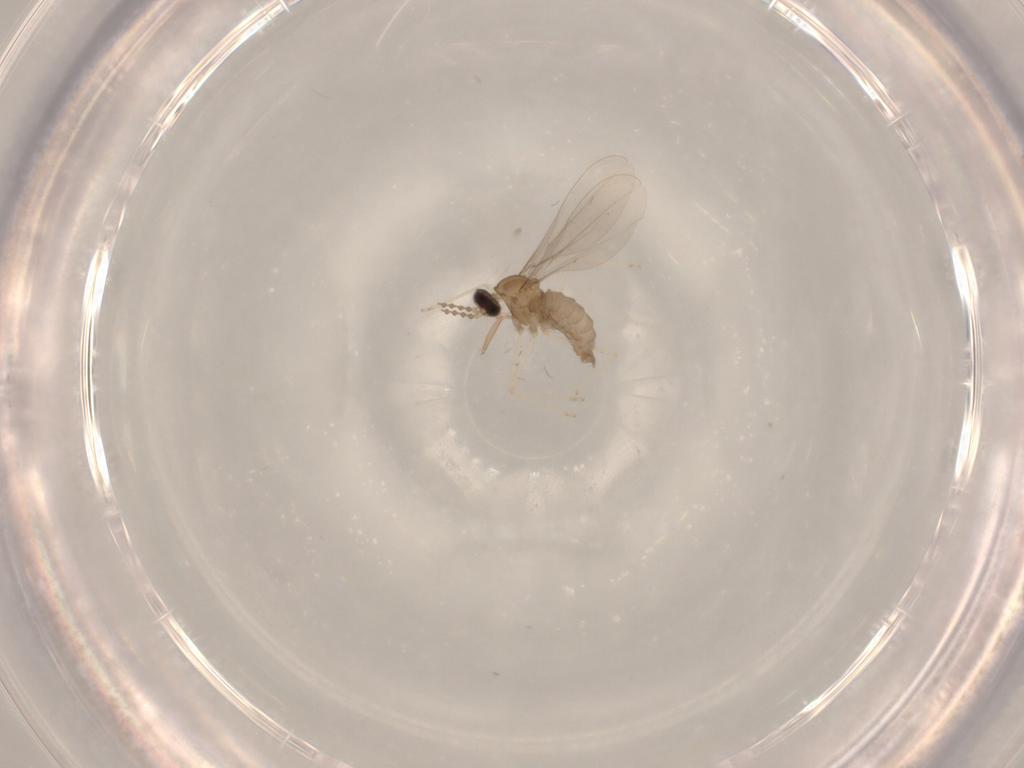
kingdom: Animalia
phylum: Arthropoda
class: Insecta
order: Diptera
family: Cecidomyiidae
